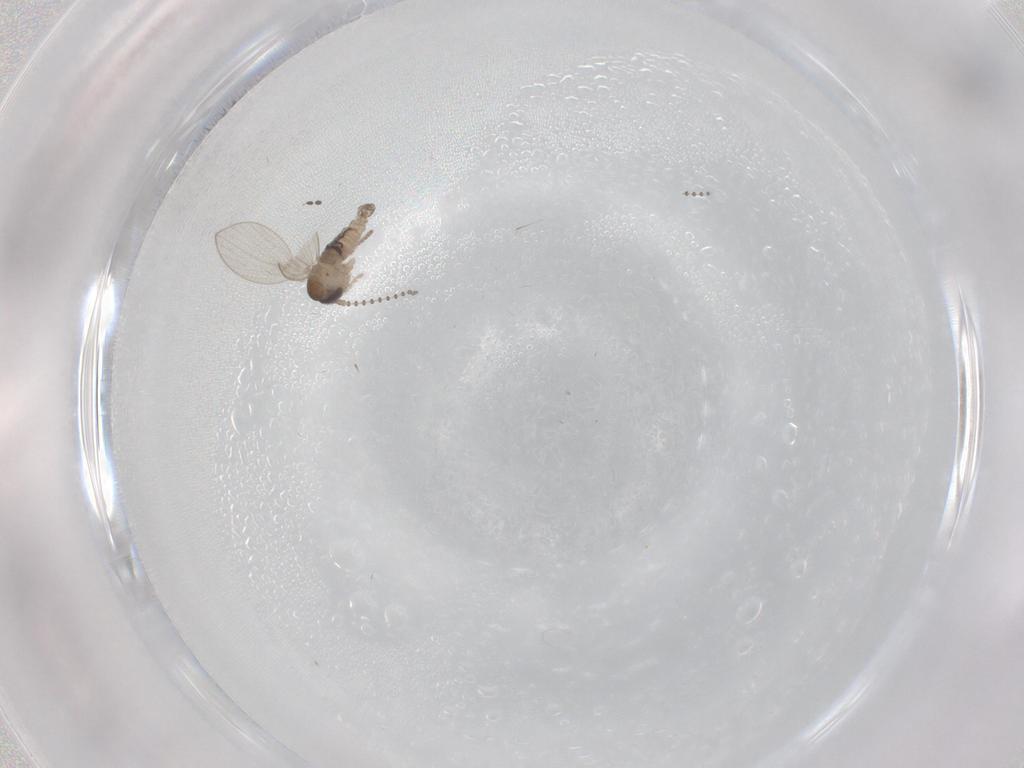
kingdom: Animalia
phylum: Arthropoda
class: Insecta
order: Diptera
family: Psychodidae
